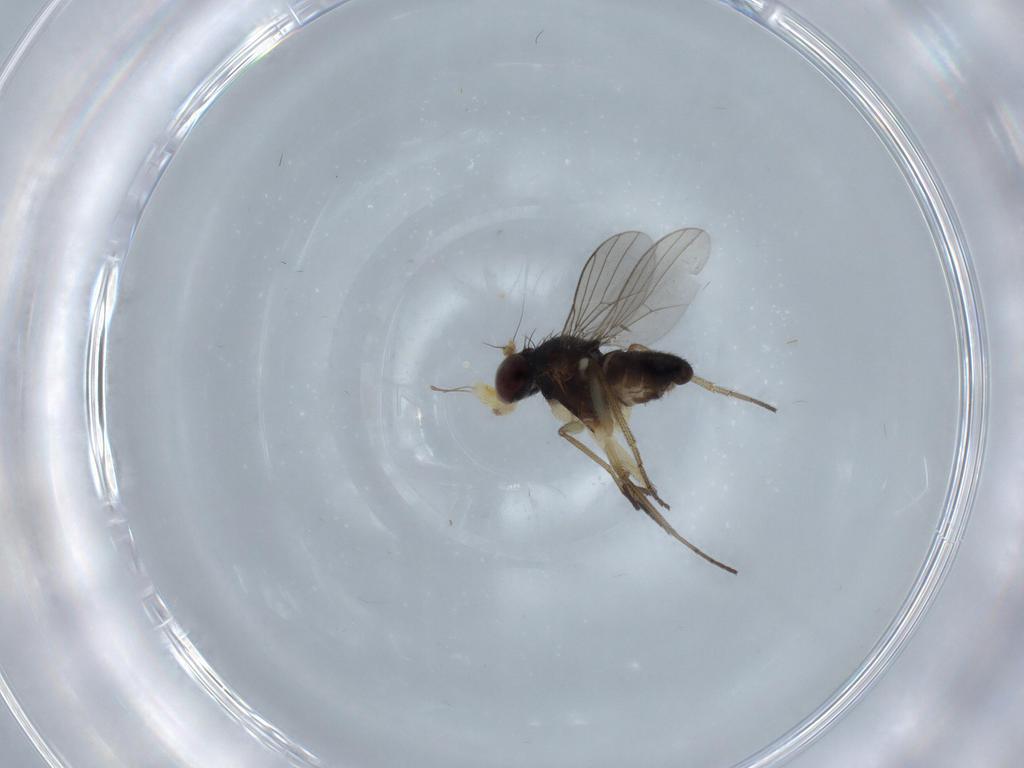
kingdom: Animalia
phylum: Arthropoda
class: Insecta
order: Diptera
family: Dolichopodidae
